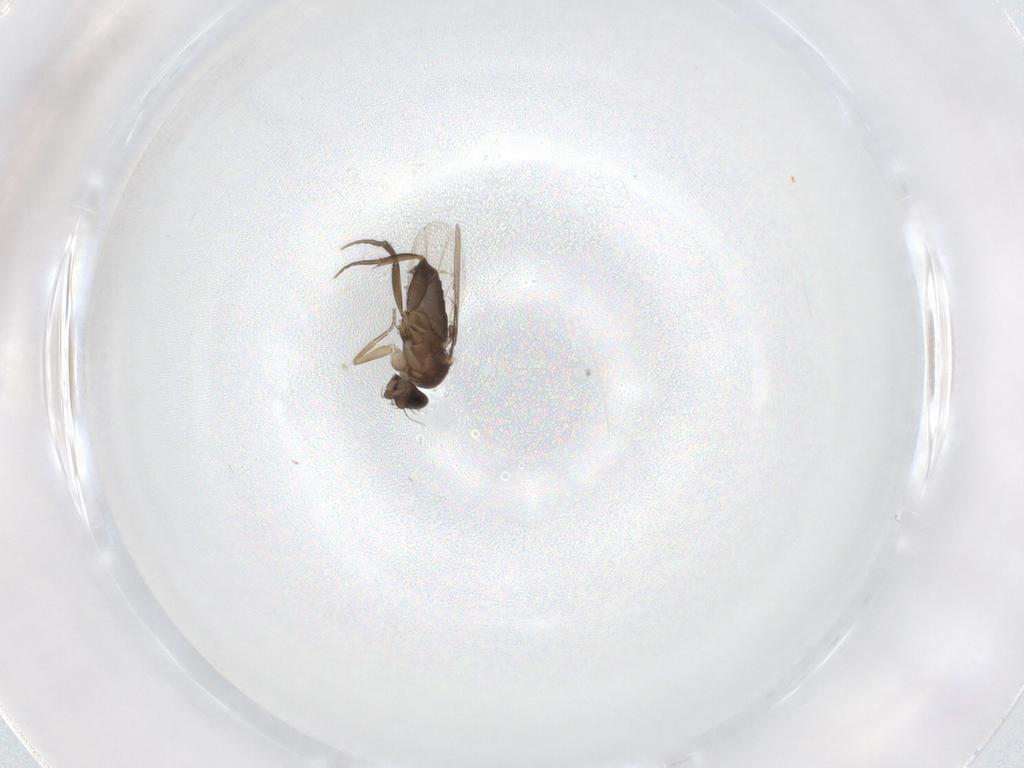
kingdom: Animalia
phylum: Arthropoda
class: Insecta
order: Diptera
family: Phoridae
